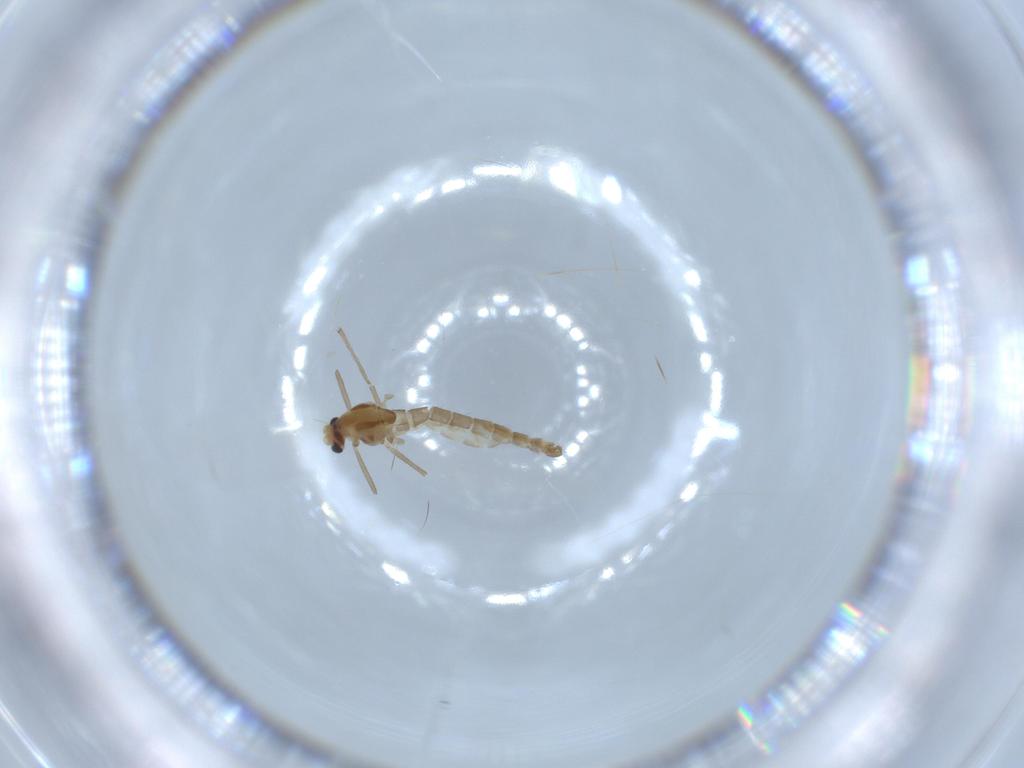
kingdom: Animalia
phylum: Arthropoda
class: Insecta
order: Diptera
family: Chironomidae
